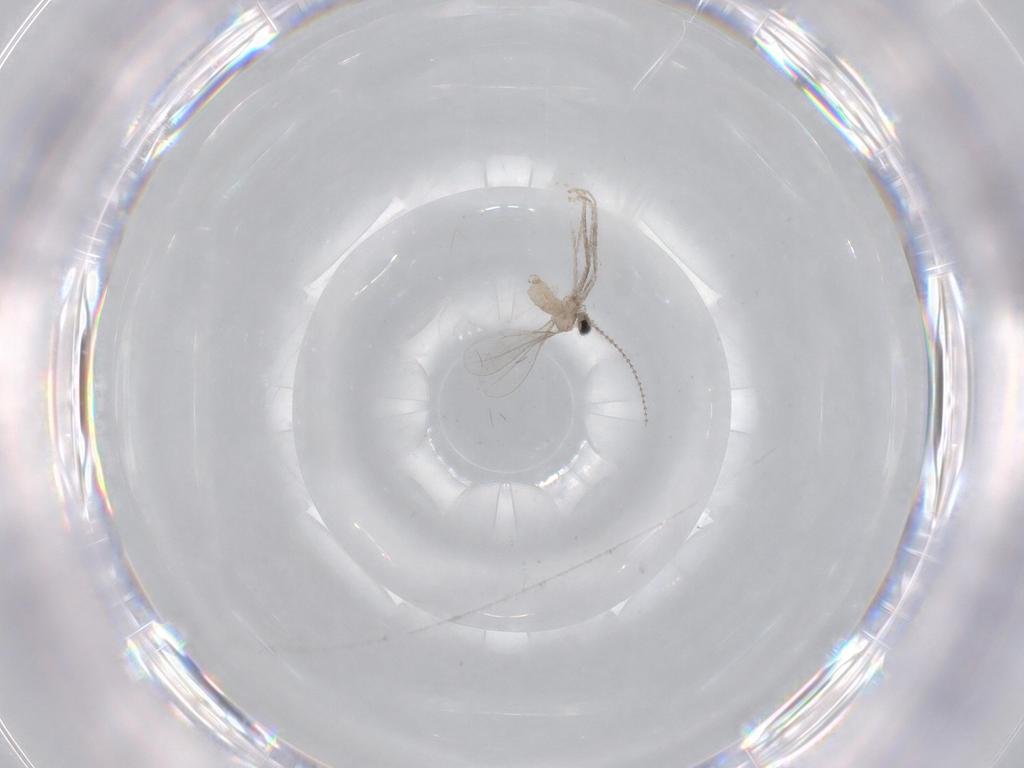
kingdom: Animalia
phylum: Arthropoda
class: Insecta
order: Diptera
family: Cecidomyiidae
